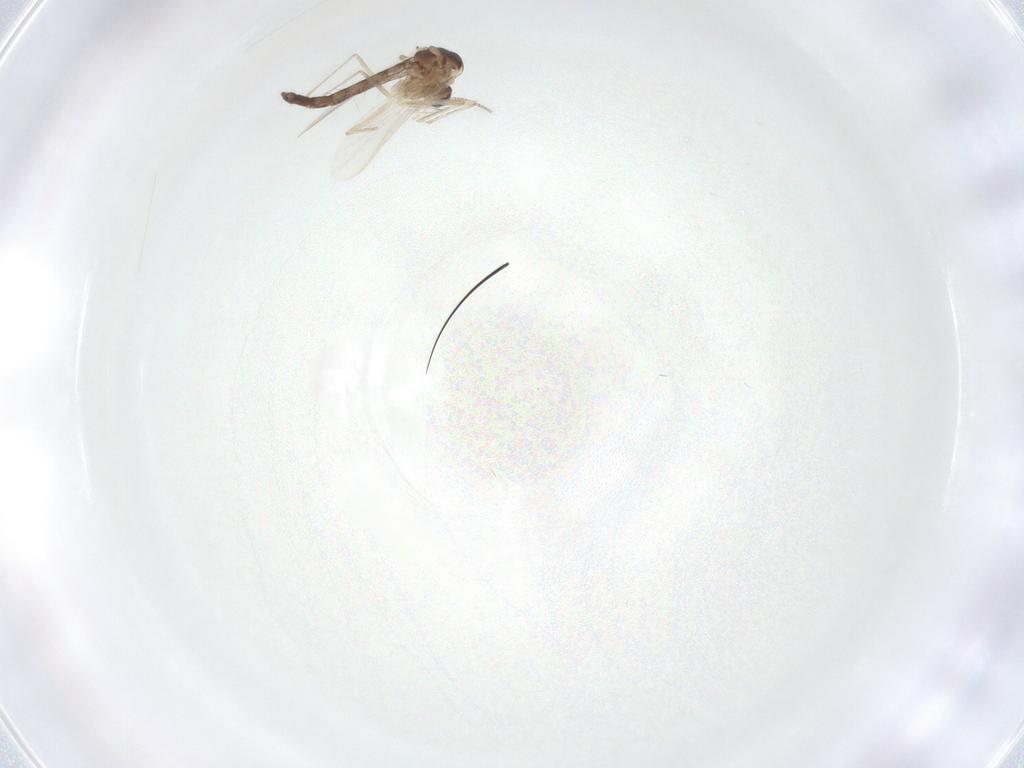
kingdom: Animalia
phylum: Arthropoda
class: Insecta
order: Diptera
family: Chironomidae
